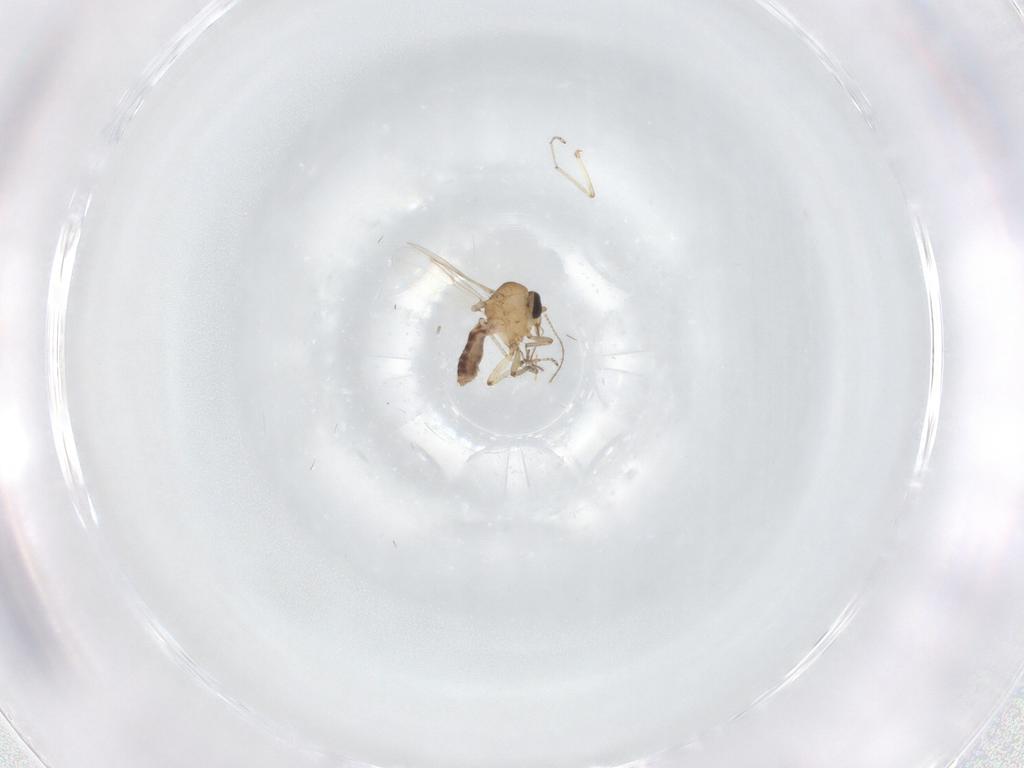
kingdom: Animalia
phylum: Arthropoda
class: Insecta
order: Diptera
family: Ceratopogonidae
